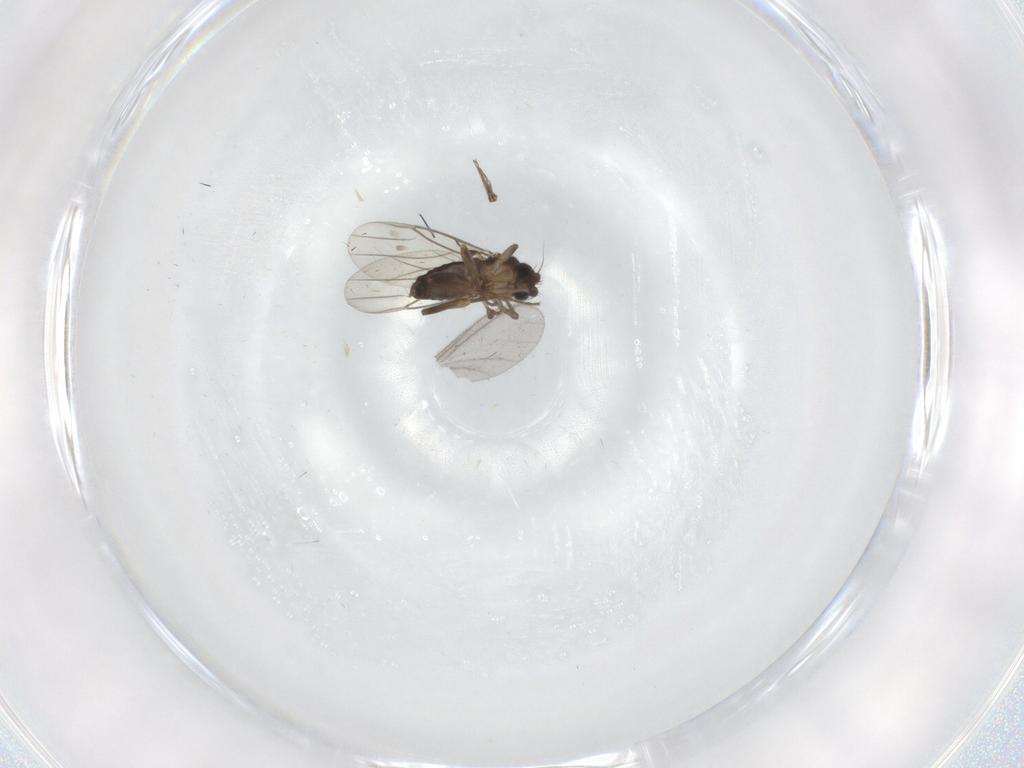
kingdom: Animalia
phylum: Arthropoda
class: Insecta
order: Diptera
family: Phoridae
